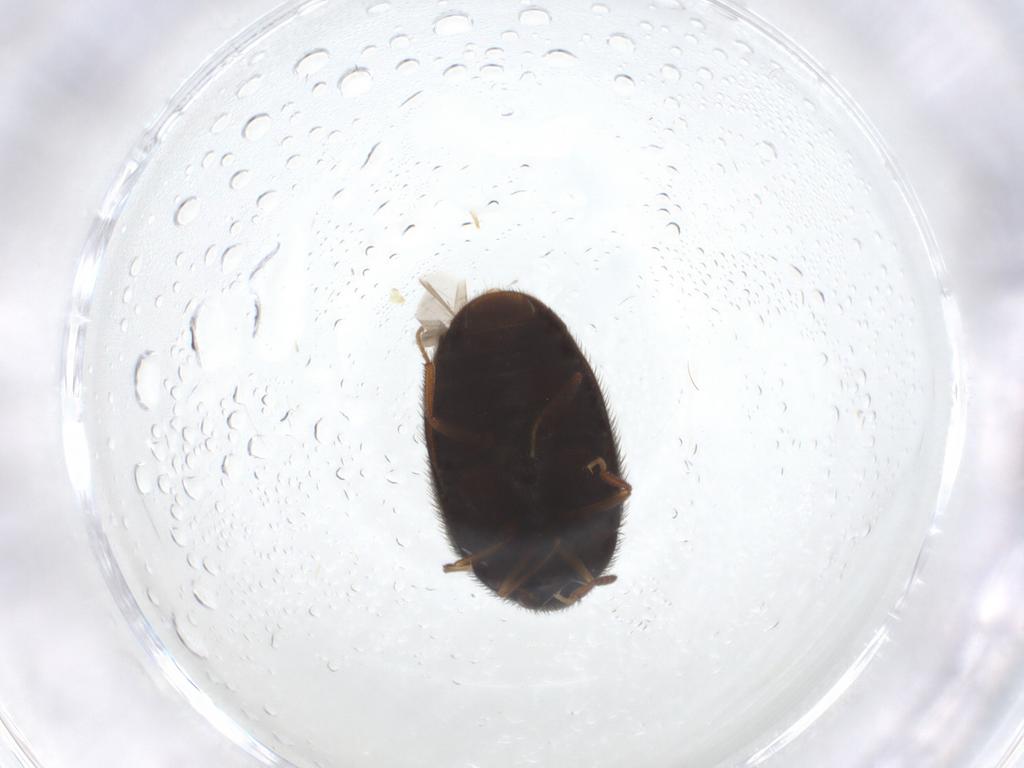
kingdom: Animalia
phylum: Arthropoda
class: Insecta
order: Coleoptera
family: Dermestidae
